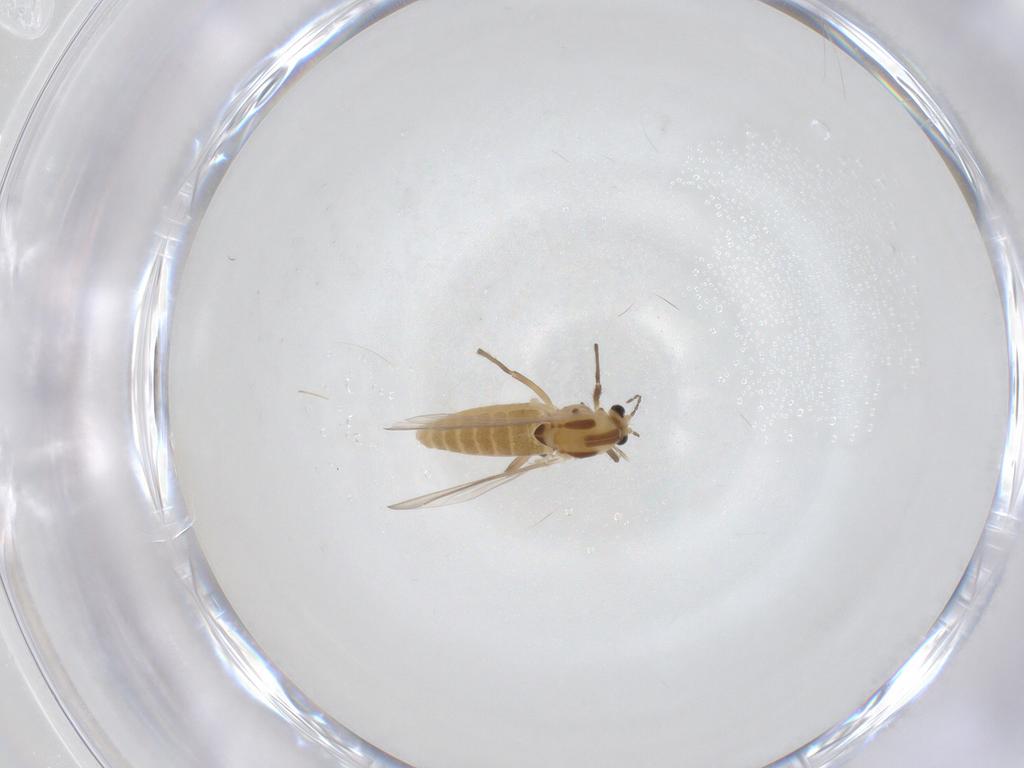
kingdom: Animalia
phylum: Arthropoda
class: Insecta
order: Diptera
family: Chironomidae
